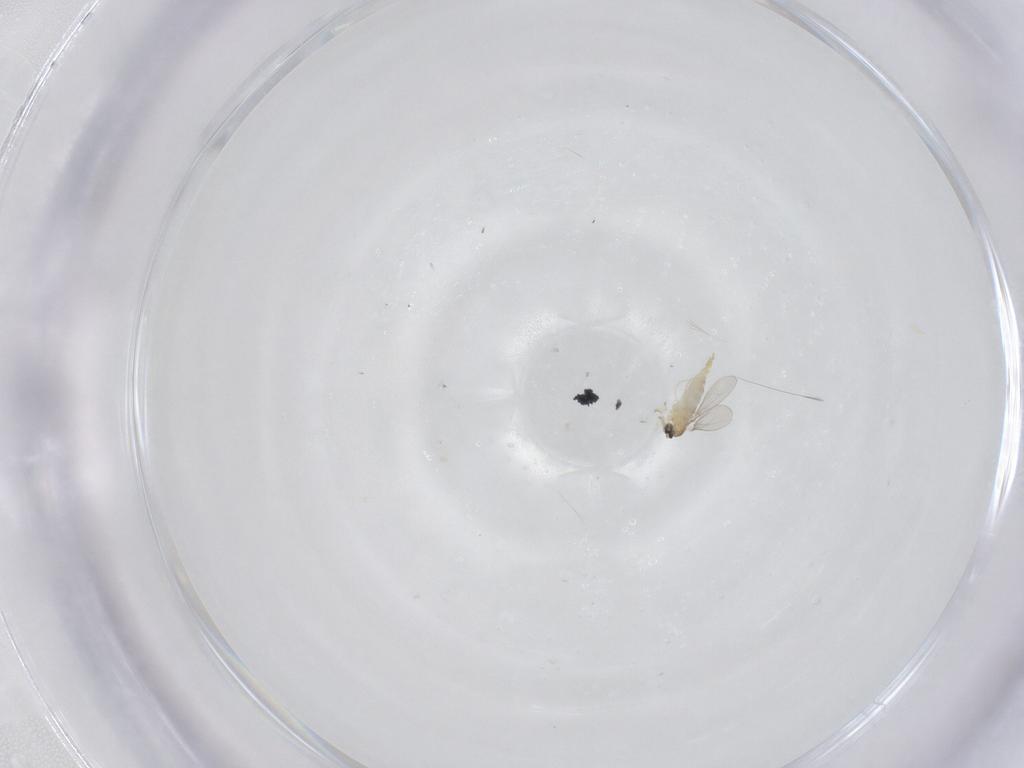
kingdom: Animalia
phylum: Arthropoda
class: Insecta
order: Diptera
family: Cecidomyiidae
